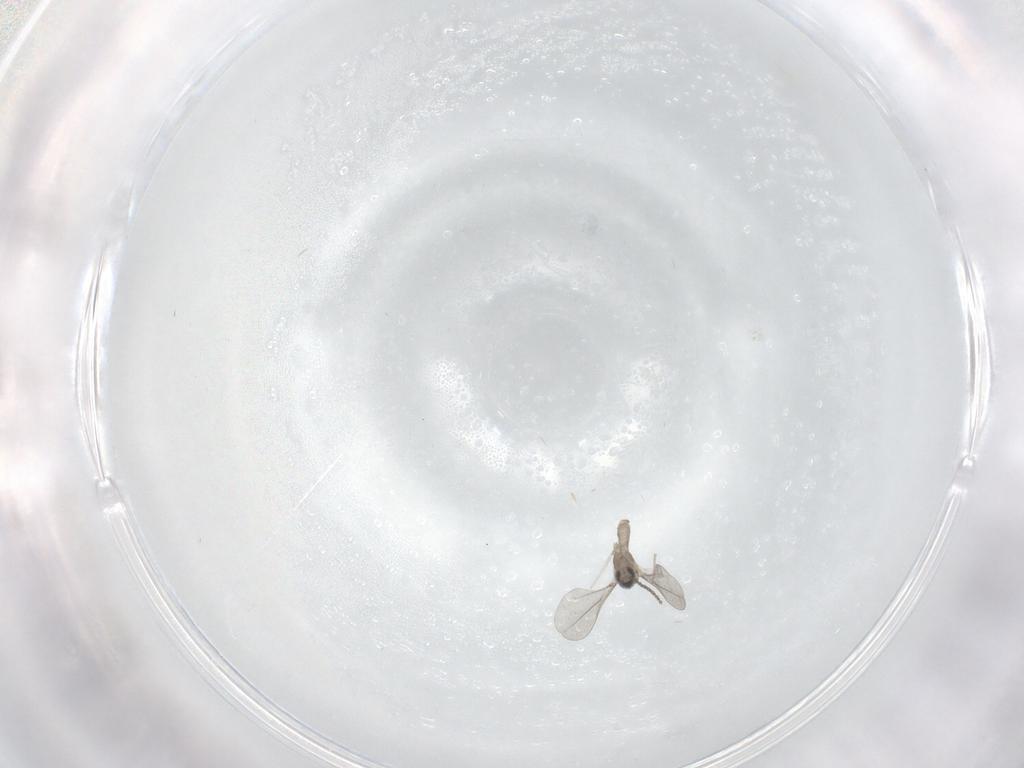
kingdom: Animalia
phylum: Arthropoda
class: Insecta
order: Diptera
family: Cecidomyiidae
